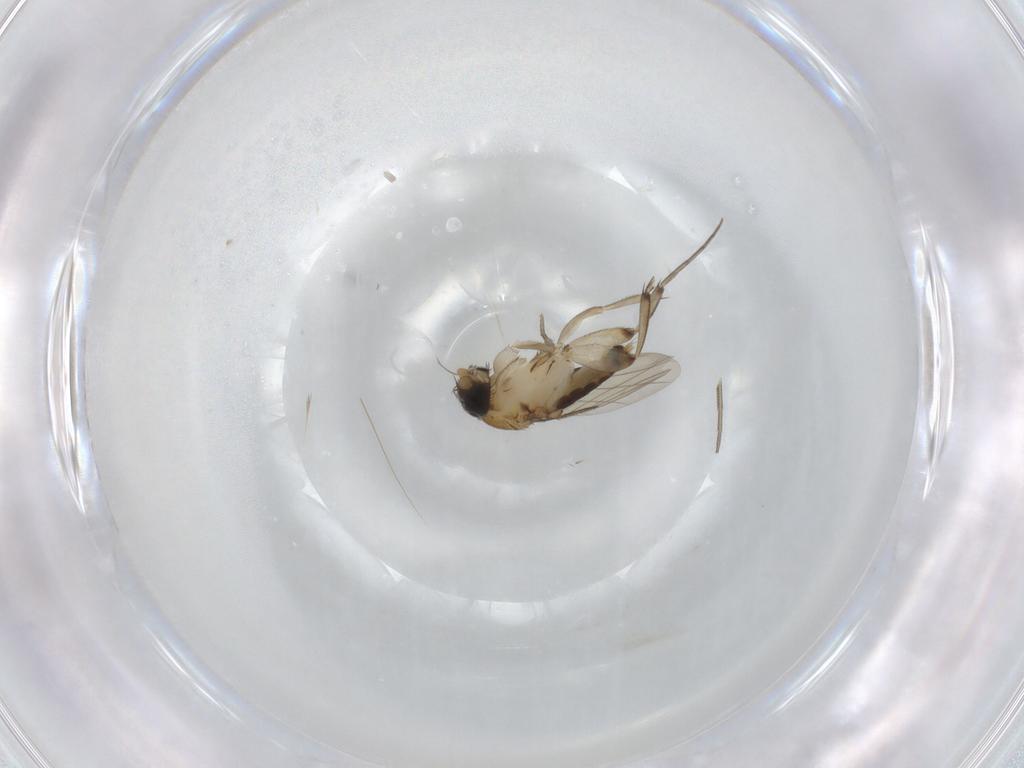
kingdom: Animalia
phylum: Arthropoda
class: Insecta
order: Diptera
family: Phoridae
